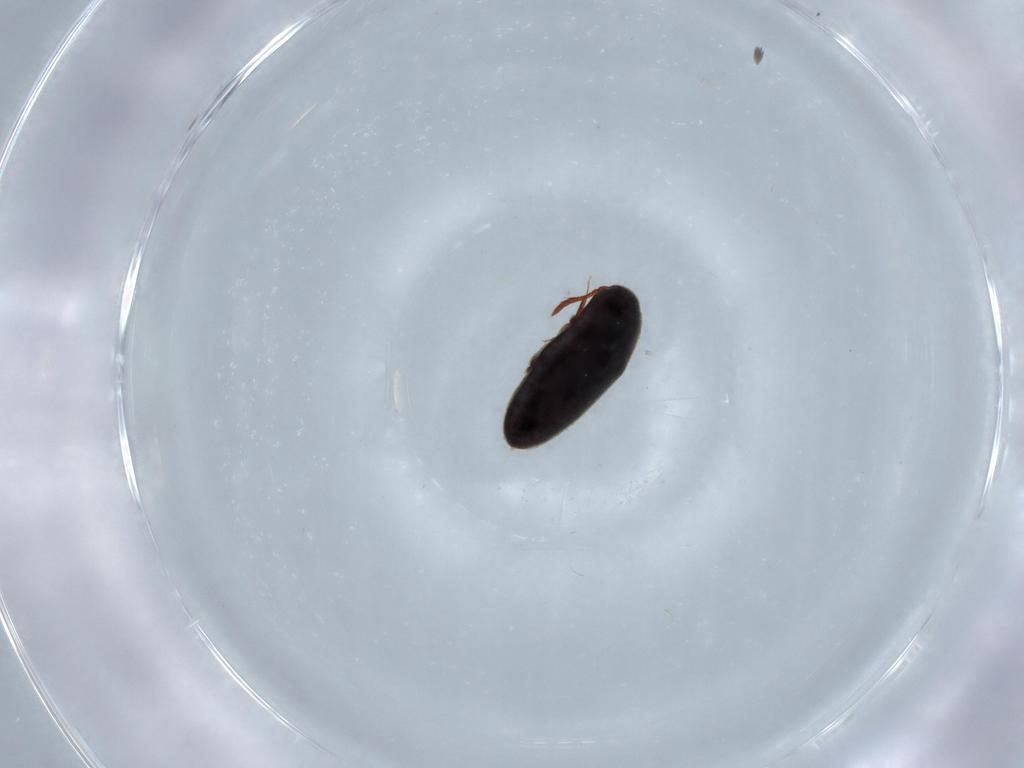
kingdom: Animalia
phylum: Arthropoda
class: Insecta
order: Coleoptera
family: Throscidae
